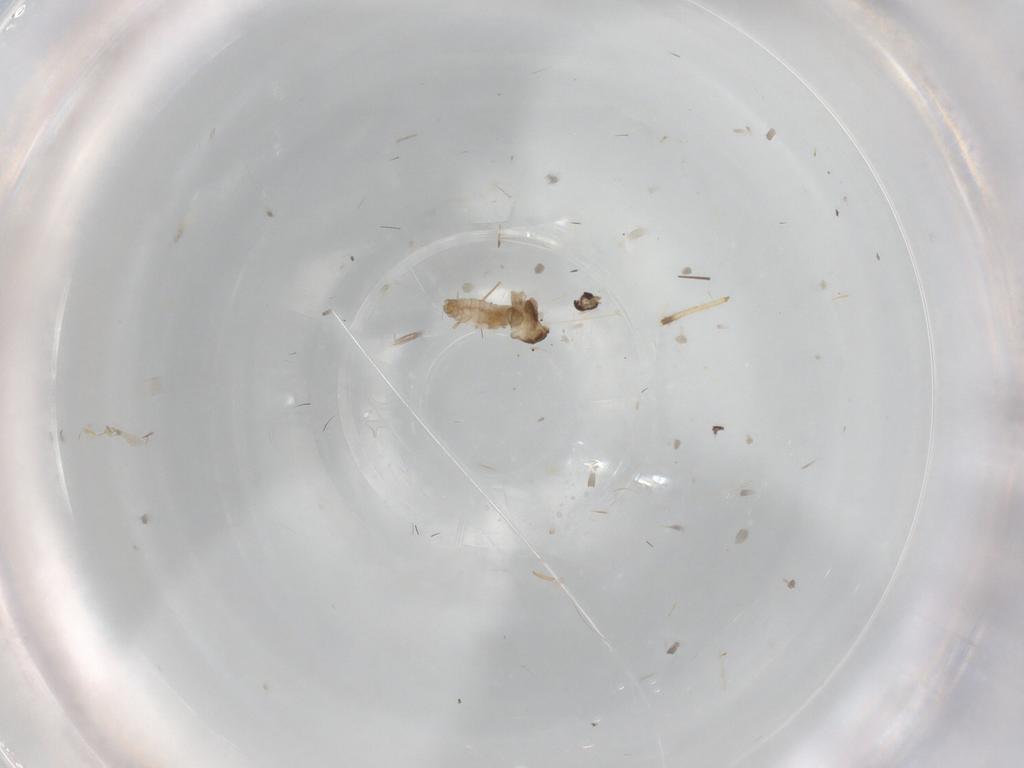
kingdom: Animalia
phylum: Arthropoda
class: Insecta
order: Diptera
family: Cecidomyiidae
